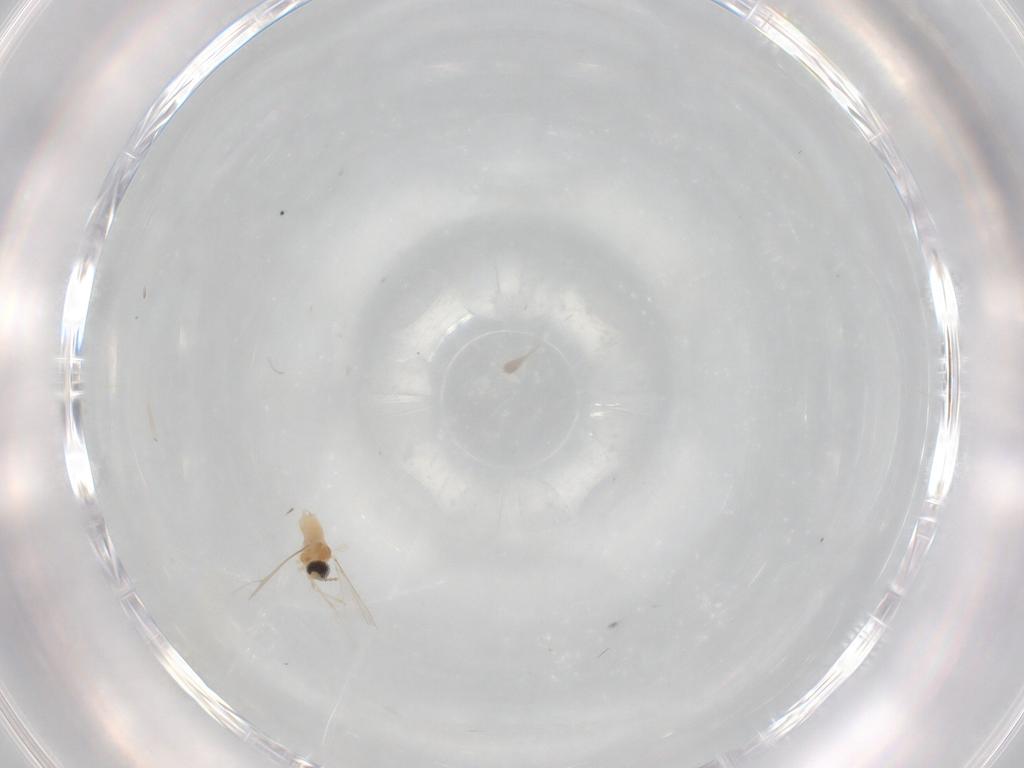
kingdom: Animalia
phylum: Arthropoda
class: Insecta
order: Diptera
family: Cecidomyiidae
